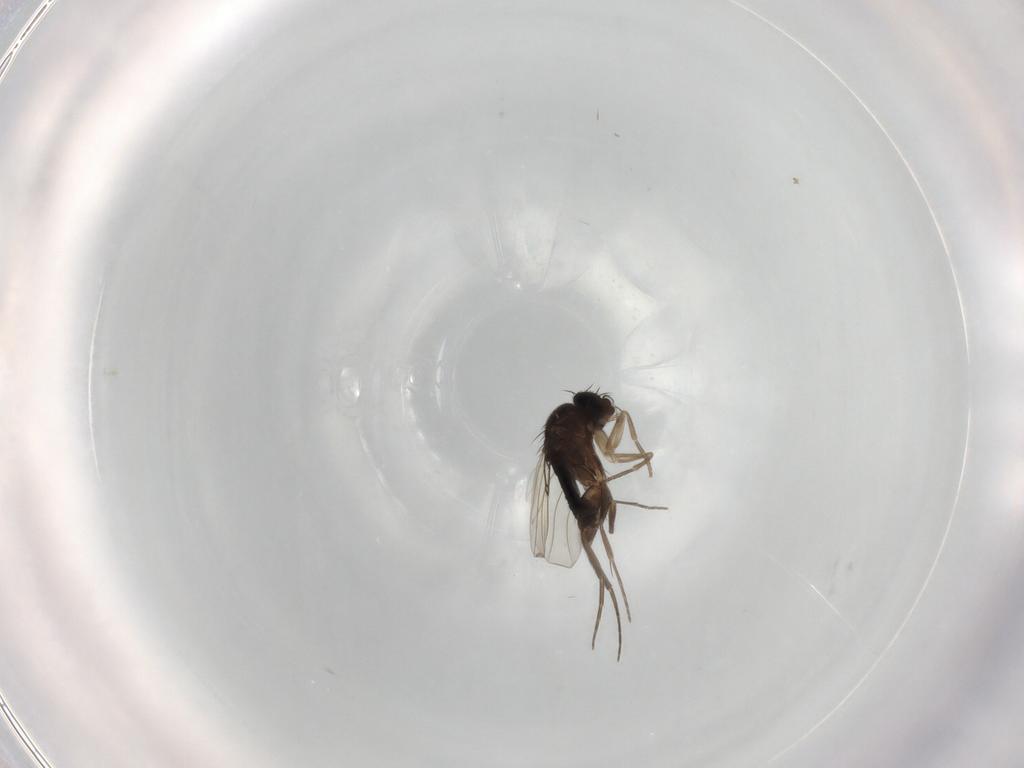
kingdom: Animalia
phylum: Arthropoda
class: Insecta
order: Diptera
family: Phoridae
